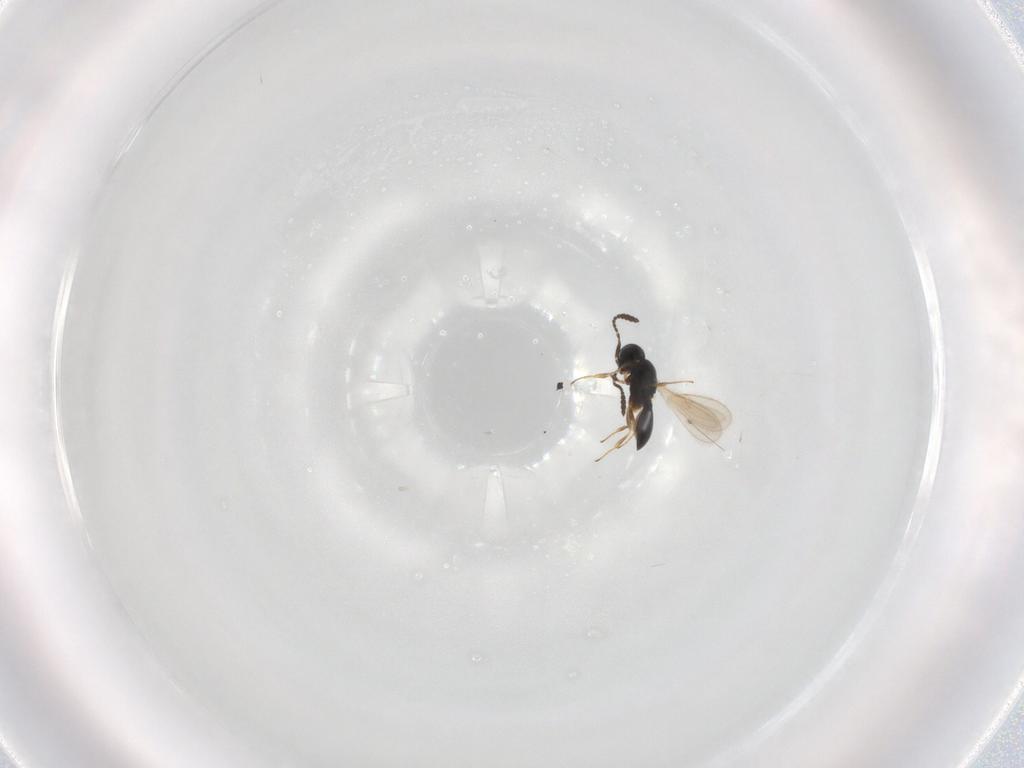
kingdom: Animalia
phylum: Arthropoda
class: Insecta
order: Hymenoptera
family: Scelionidae
